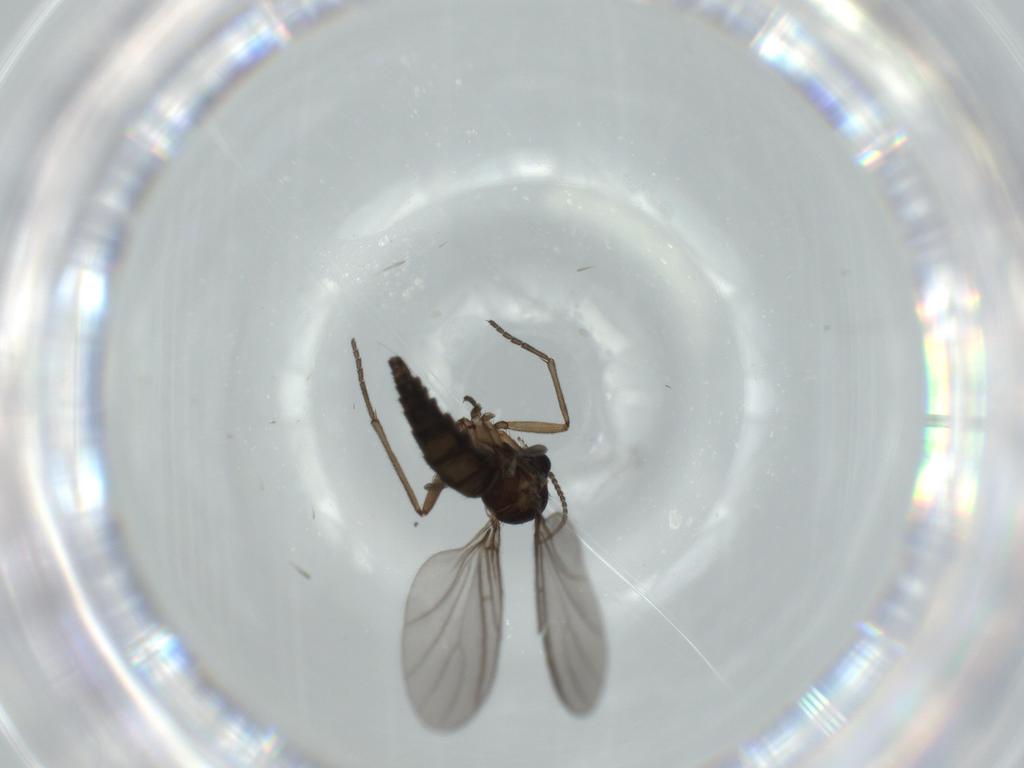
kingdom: Animalia
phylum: Arthropoda
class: Insecta
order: Diptera
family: Sciaridae
